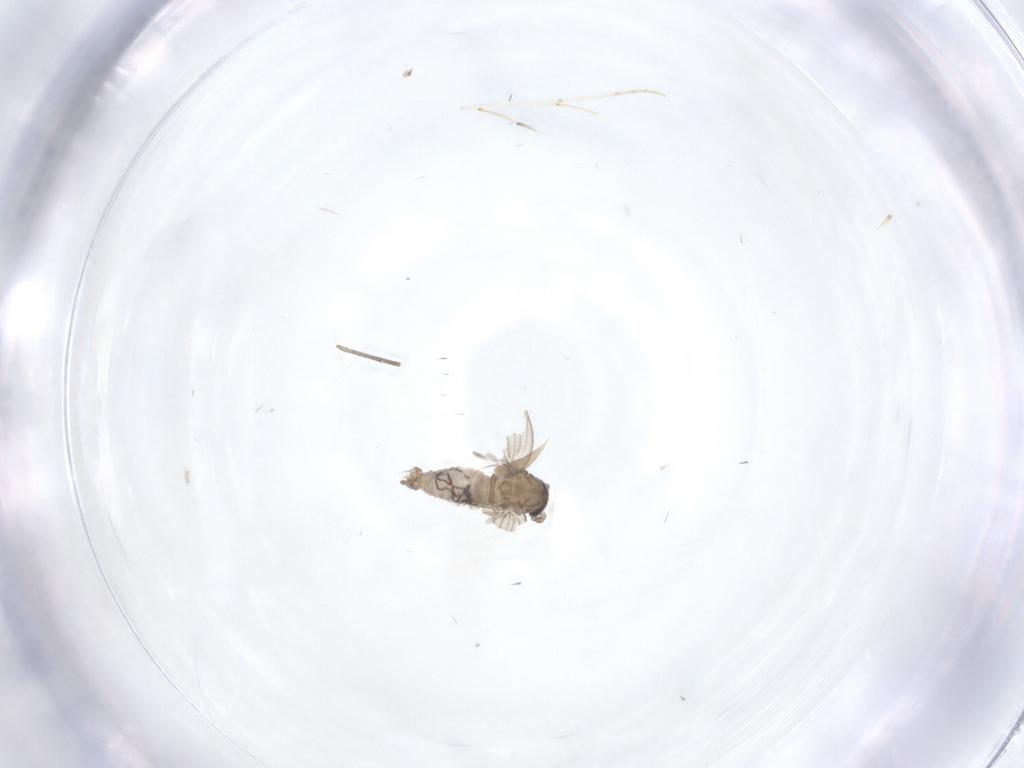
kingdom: Animalia
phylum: Arthropoda
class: Insecta
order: Diptera
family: Psychodidae
